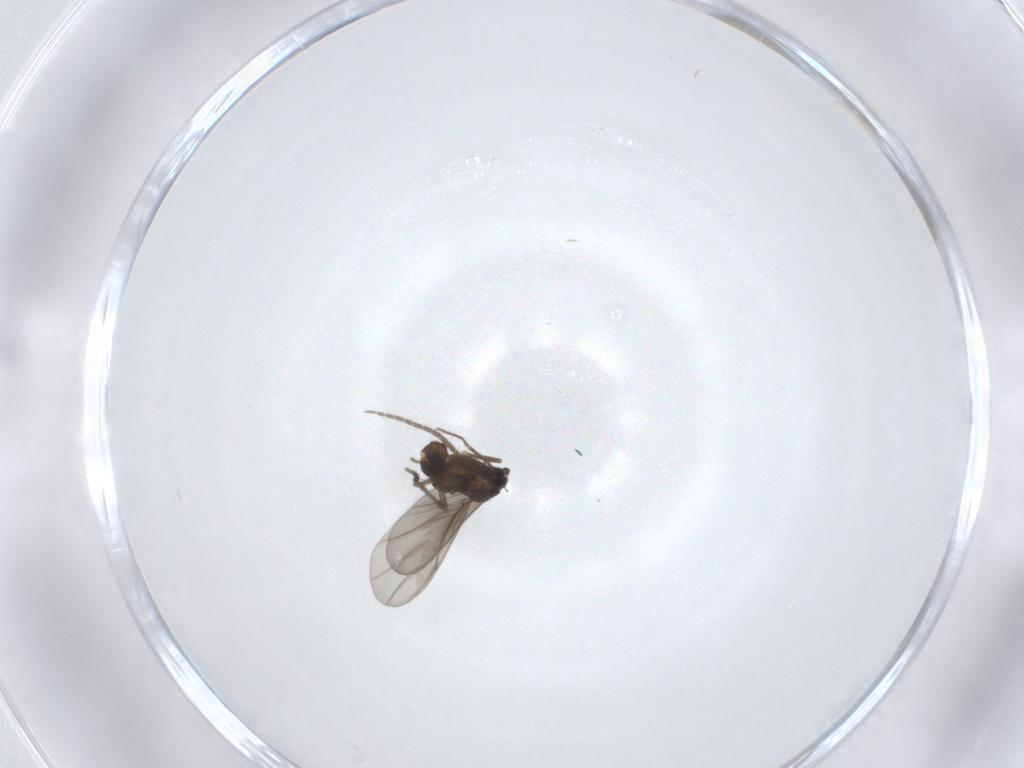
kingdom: Animalia
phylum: Arthropoda
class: Insecta
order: Diptera
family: Phoridae
